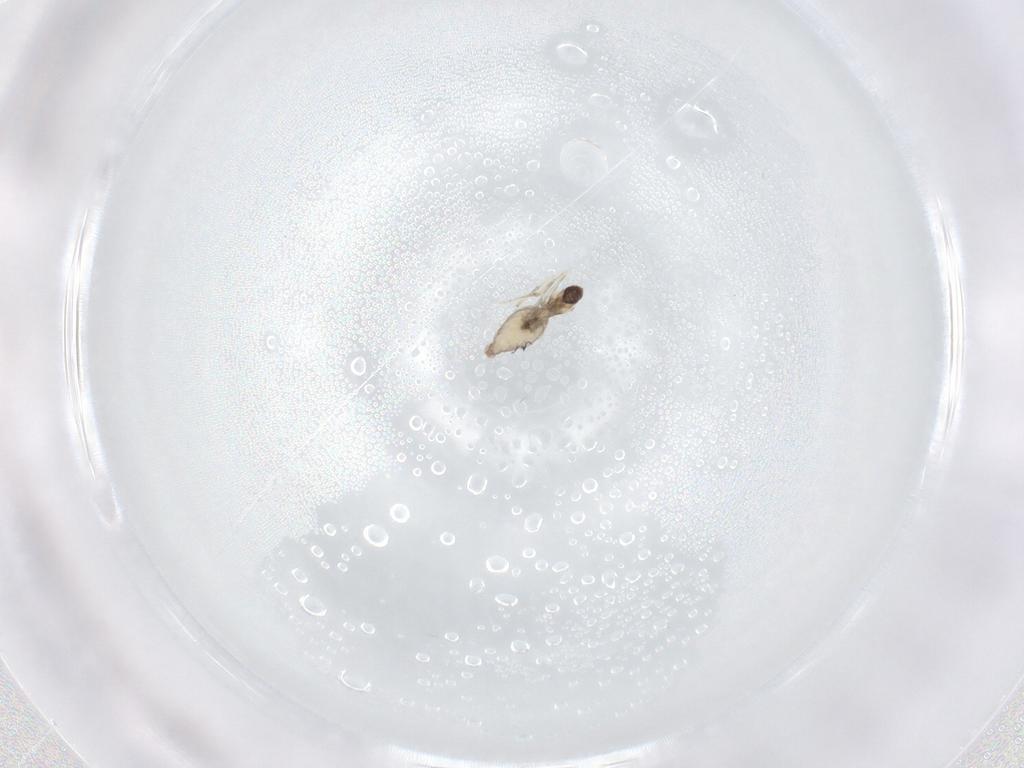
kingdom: Animalia
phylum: Arthropoda
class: Insecta
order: Diptera
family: Cecidomyiidae
